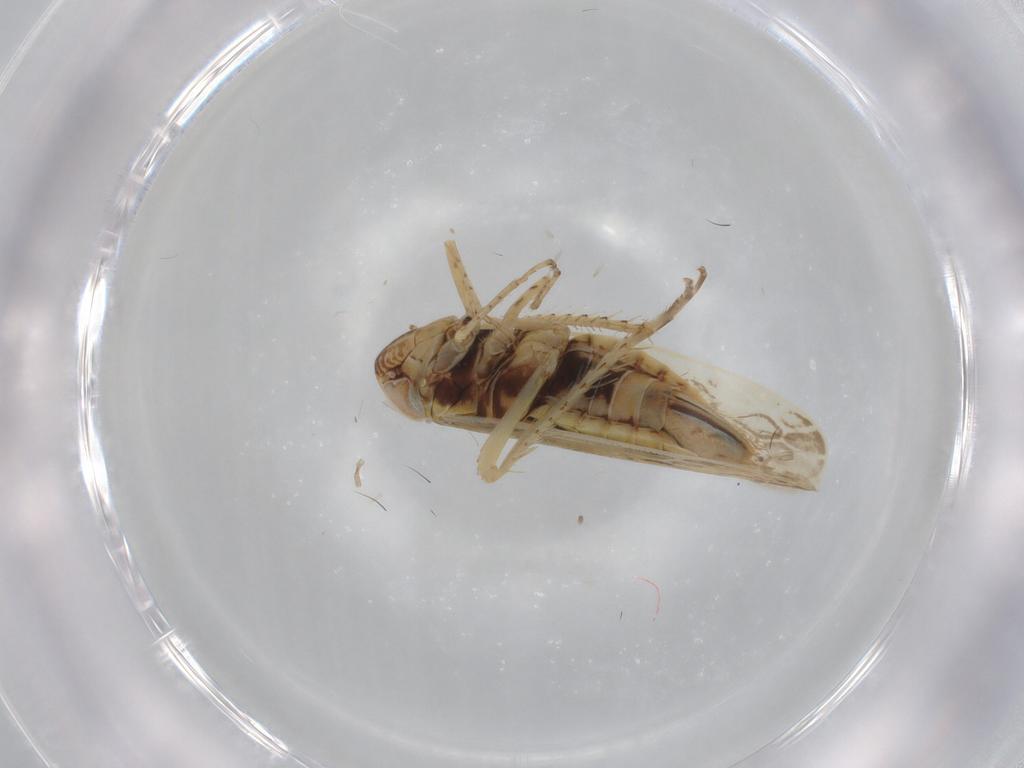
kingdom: Animalia
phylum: Arthropoda
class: Insecta
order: Hemiptera
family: Cicadellidae
